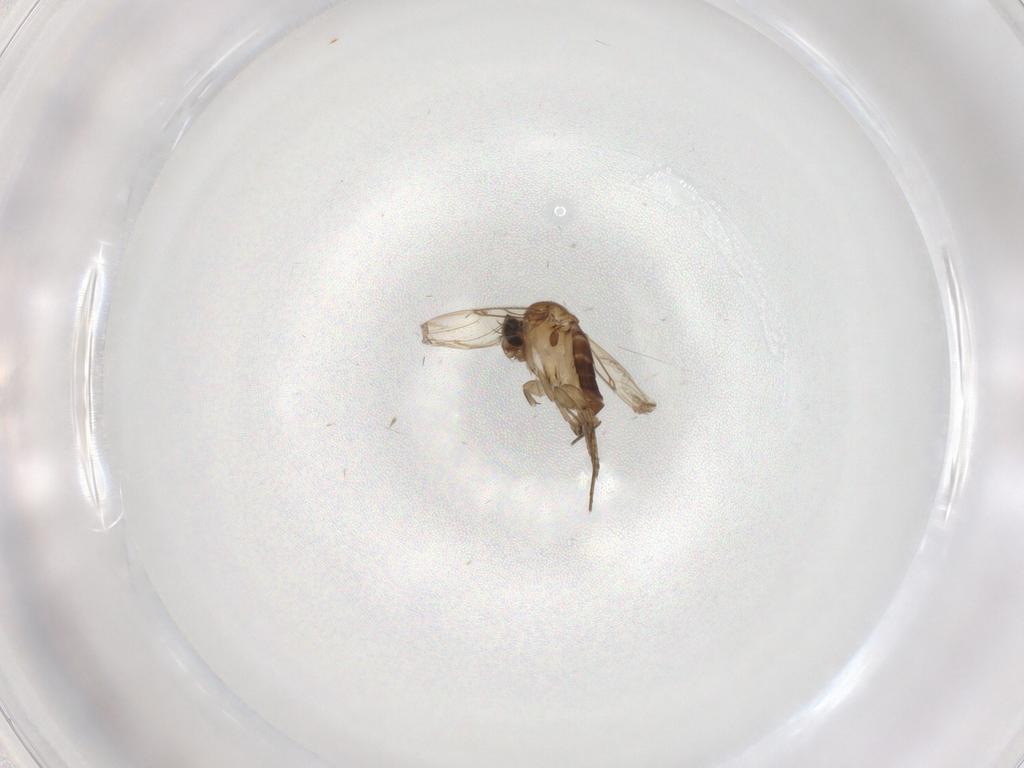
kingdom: Animalia
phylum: Arthropoda
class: Insecta
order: Diptera
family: Phoridae
